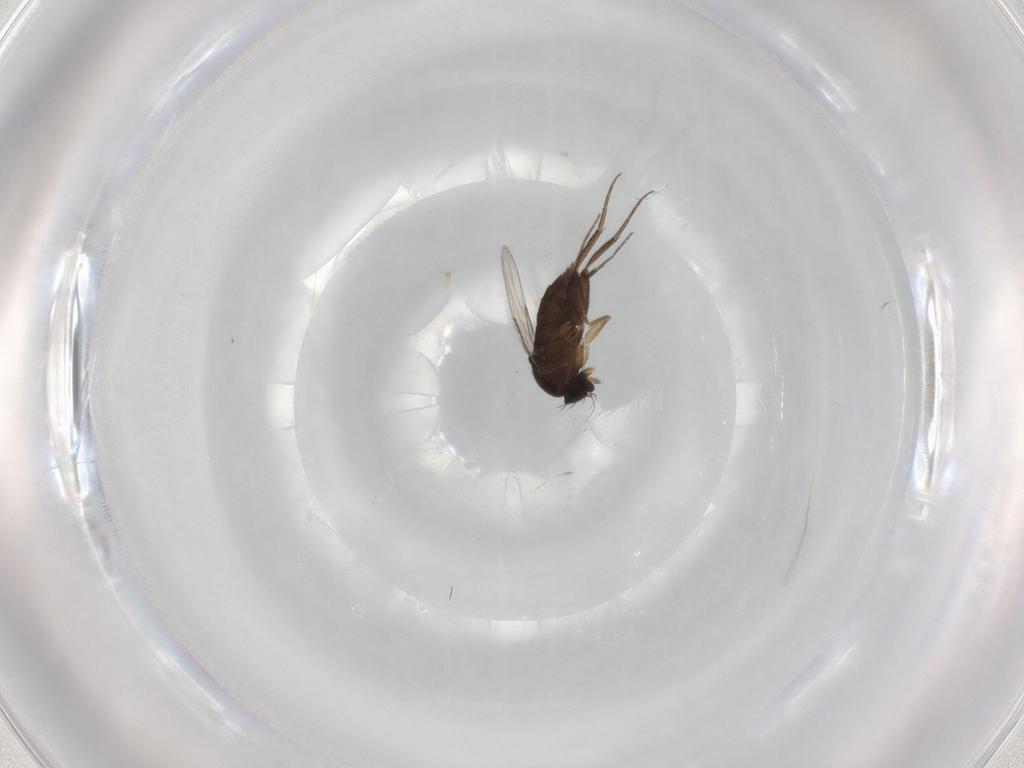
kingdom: Animalia
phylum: Arthropoda
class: Insecta
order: Diptera
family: Phoridae
